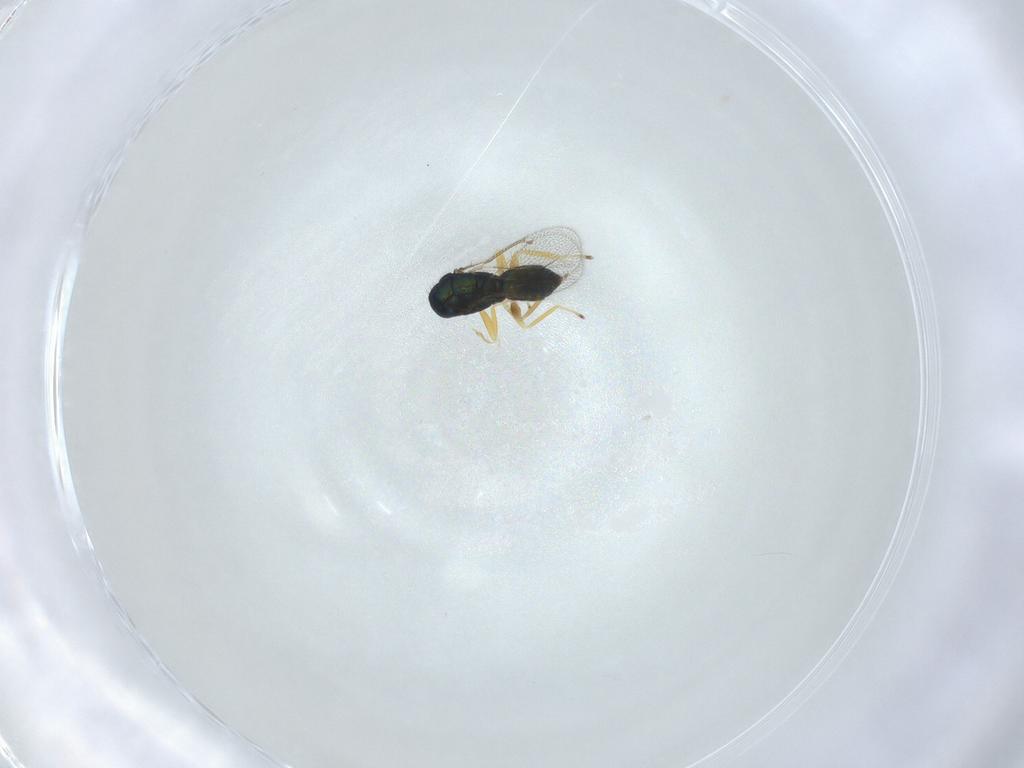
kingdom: Animalia
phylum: Arthropoda
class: Insecta
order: Hymenoptera
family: Eulophidae
